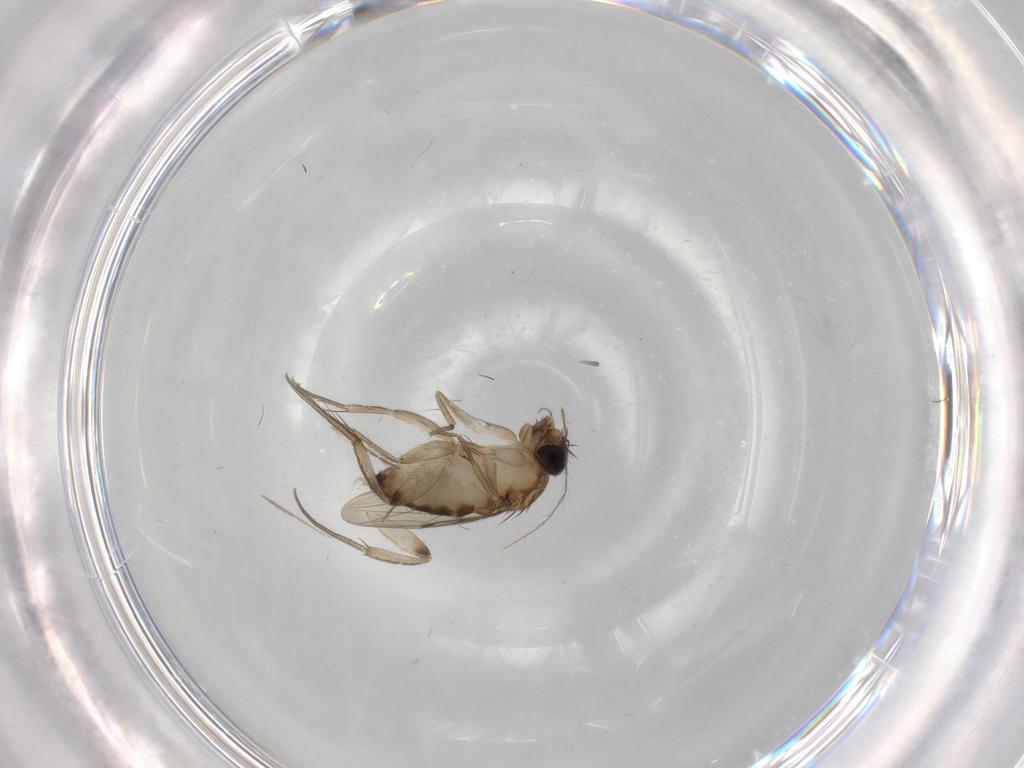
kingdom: Animalia
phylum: Arthropoda
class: Insecta
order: Diptera
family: Phoridae
